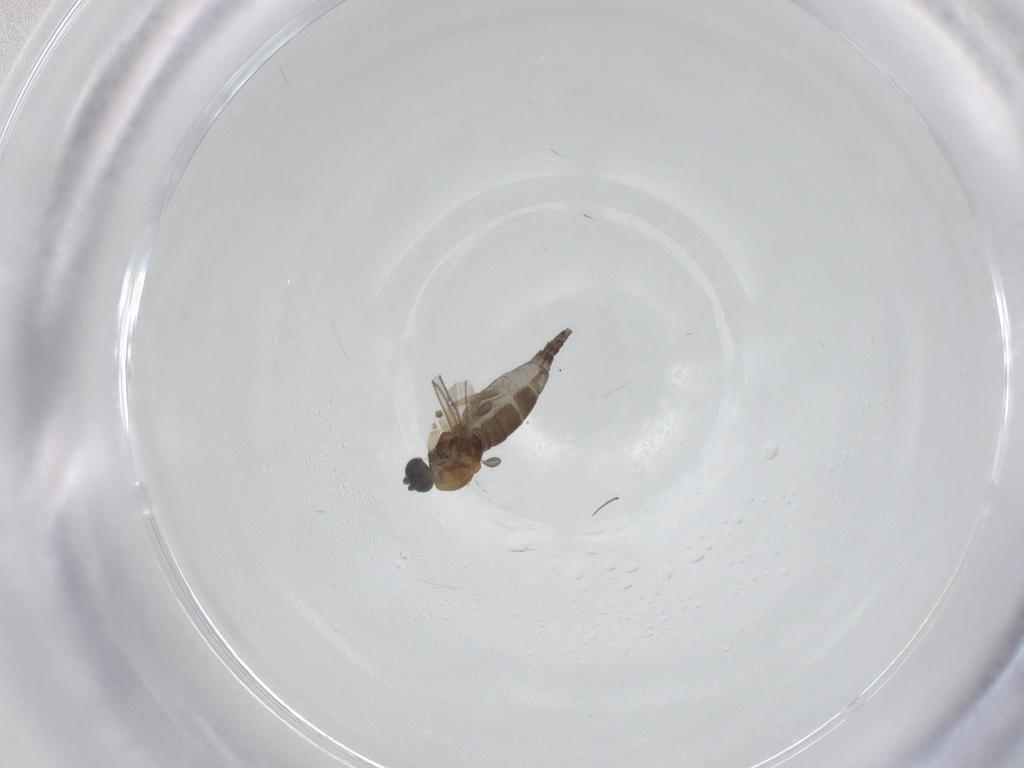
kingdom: Animalia
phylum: Arthropoda
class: Insecta
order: Diptera
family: Sciaridae
